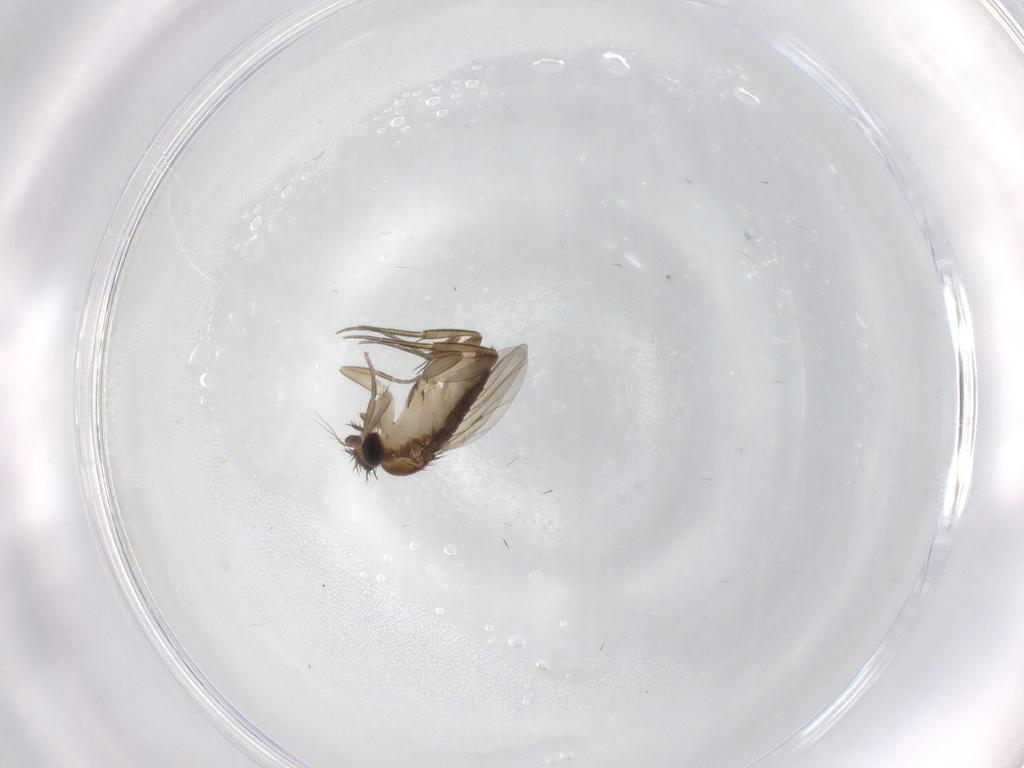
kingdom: Animalia
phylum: Arthropoda
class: Insecta
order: Diptera
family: Phoridae
